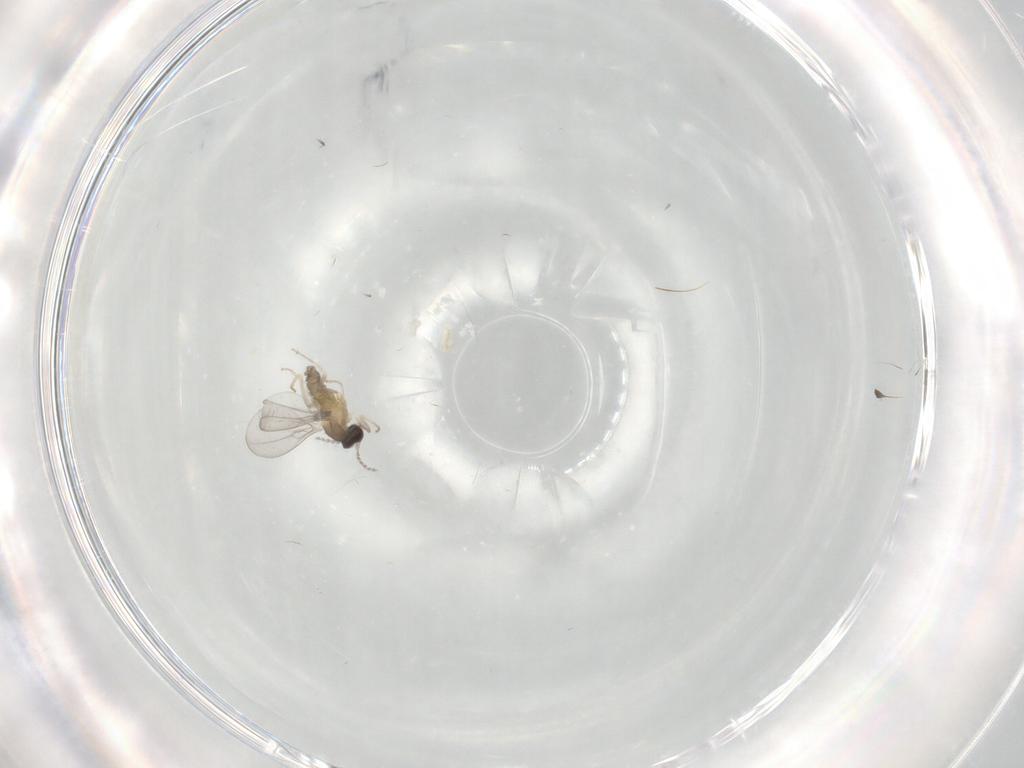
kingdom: Animalia
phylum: Arthropoda
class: Insecta
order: Diptera
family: Cecidomyiidae
